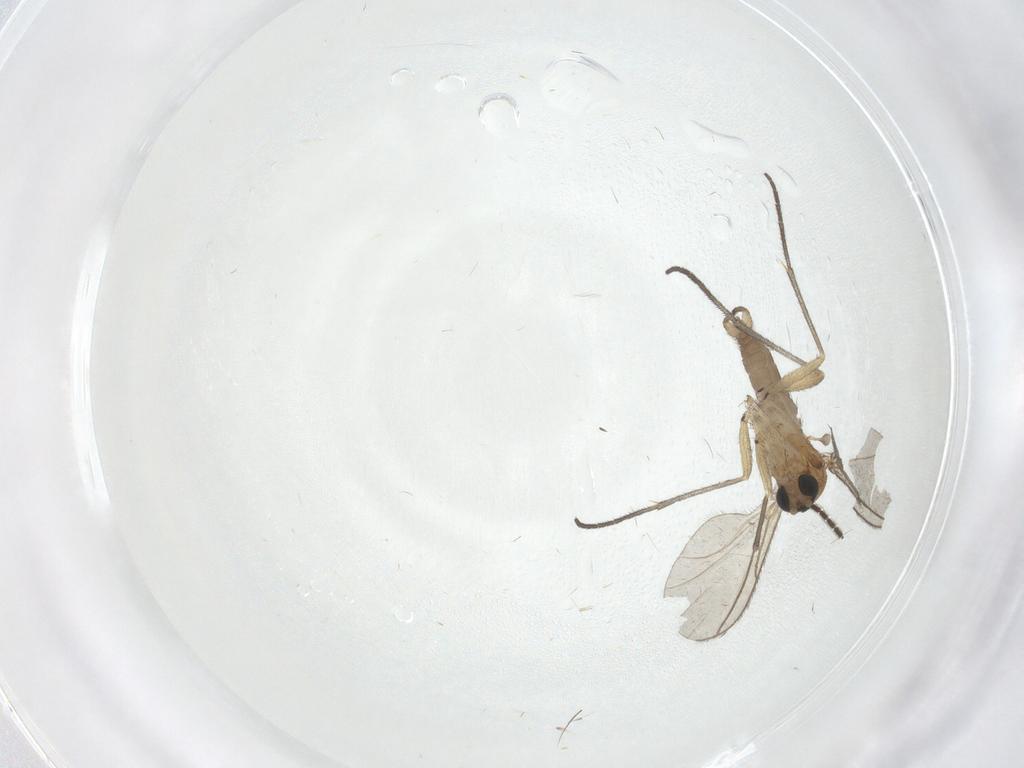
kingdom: Animalia
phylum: Arthropoda
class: Insecta
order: Diptera
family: Sciaridae
